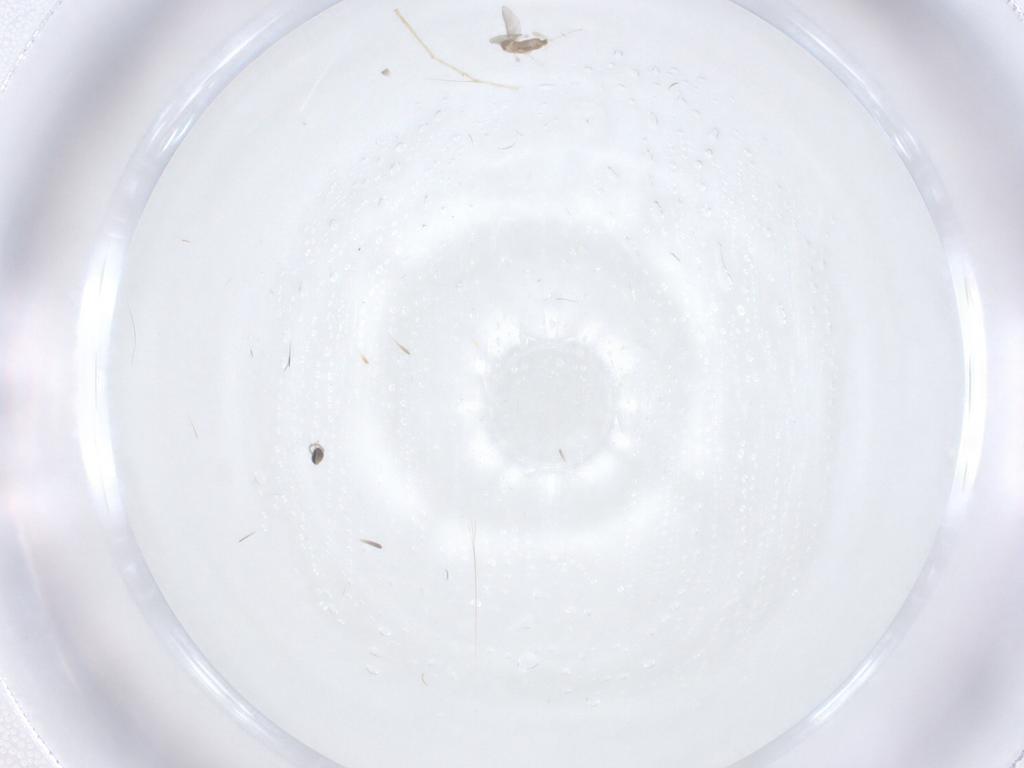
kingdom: Animalia
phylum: Arthropoda
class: Insecta
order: Diptera
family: Cecidomyiidae
